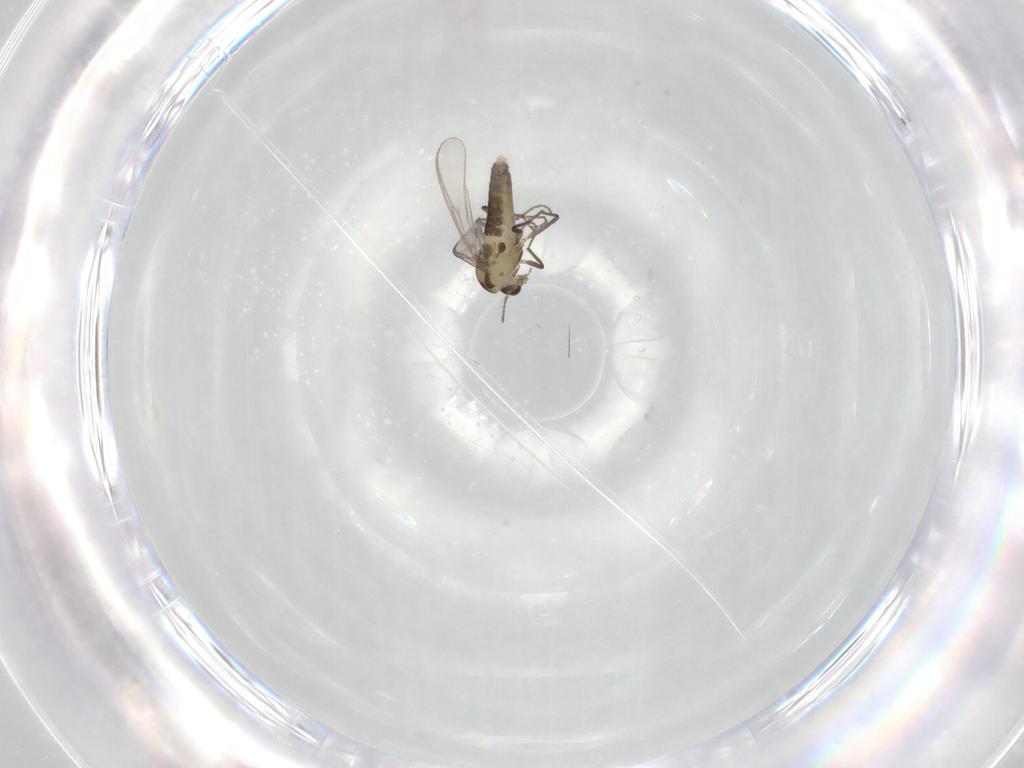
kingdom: Animalia
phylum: Arthropoda
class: Insecta
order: Diptera
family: Chironomidae
